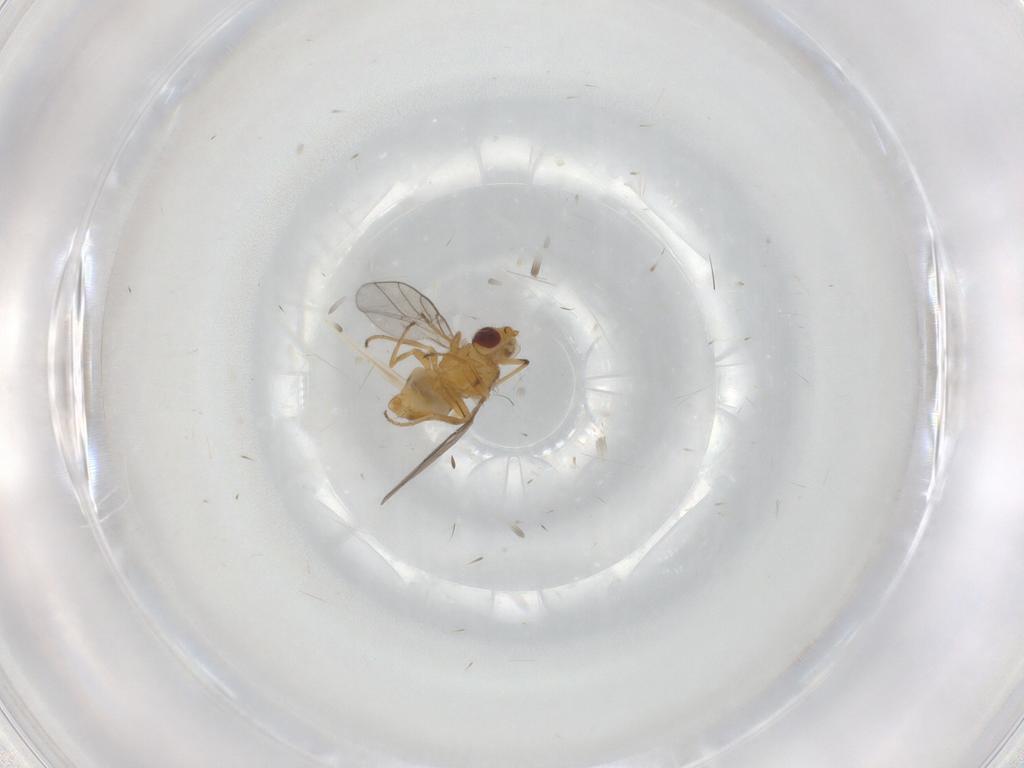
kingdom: Animalia
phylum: Arthropoda
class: Insecta
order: Diptera
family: Chloropidae
